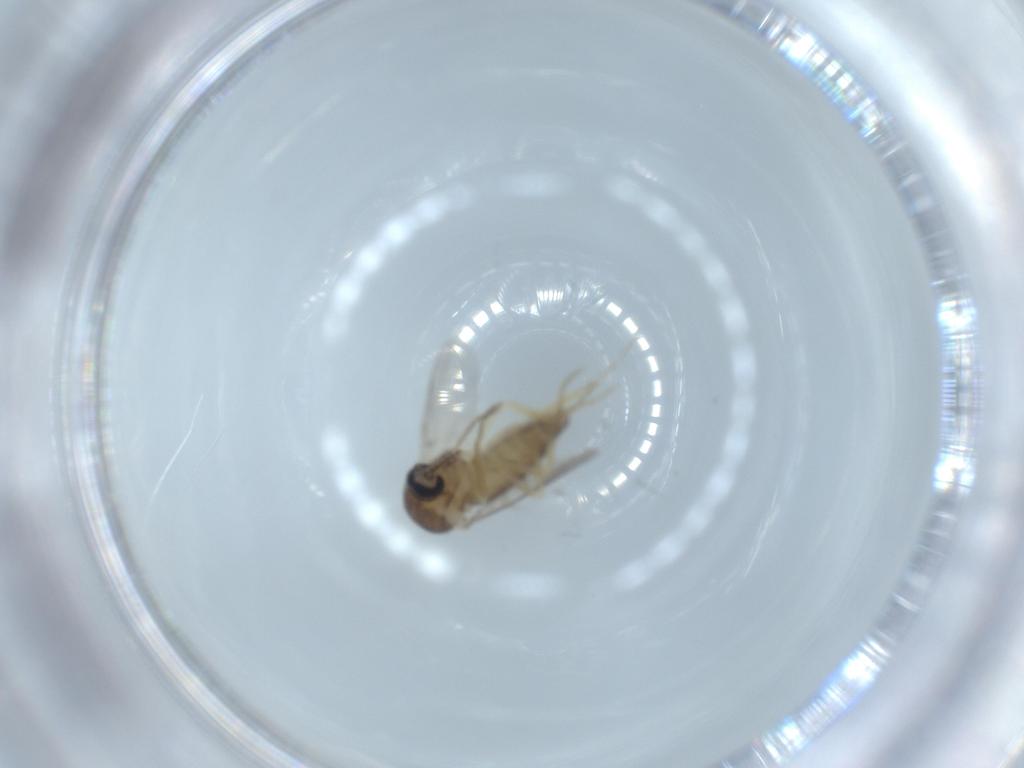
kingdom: Animalia
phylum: Arthropoda
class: Insecta
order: Diptera
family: Ceratopogonidae
